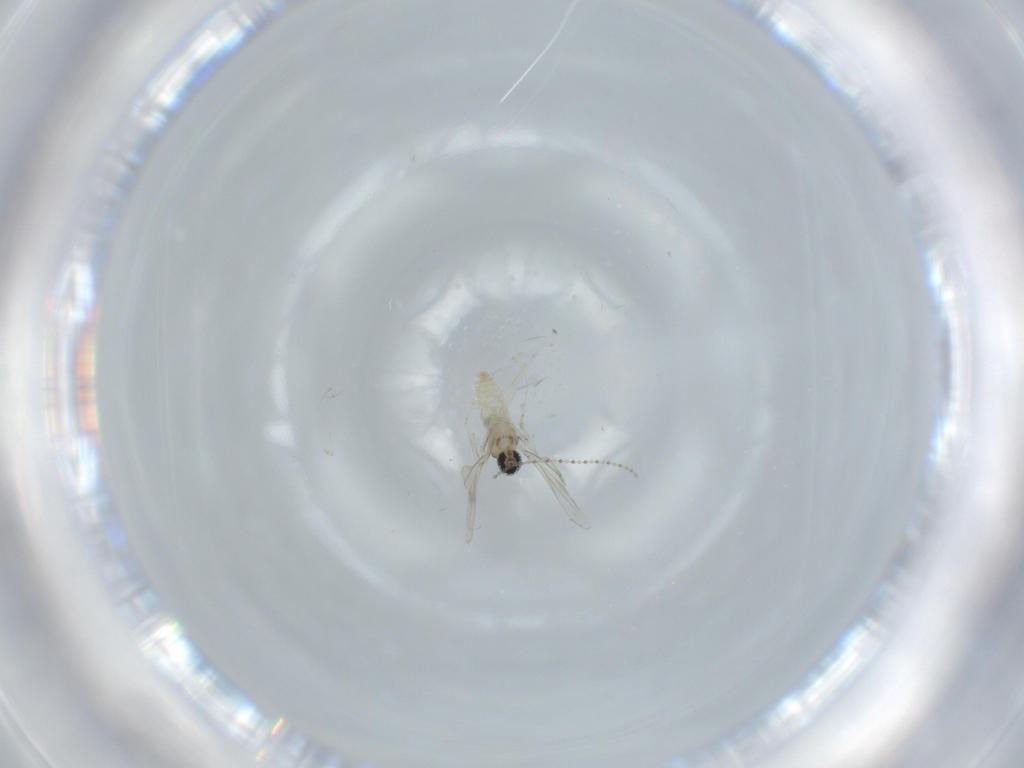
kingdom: Animalia
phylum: Arthropoda
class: Insecta
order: Diptera
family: Cecidomyiidae
